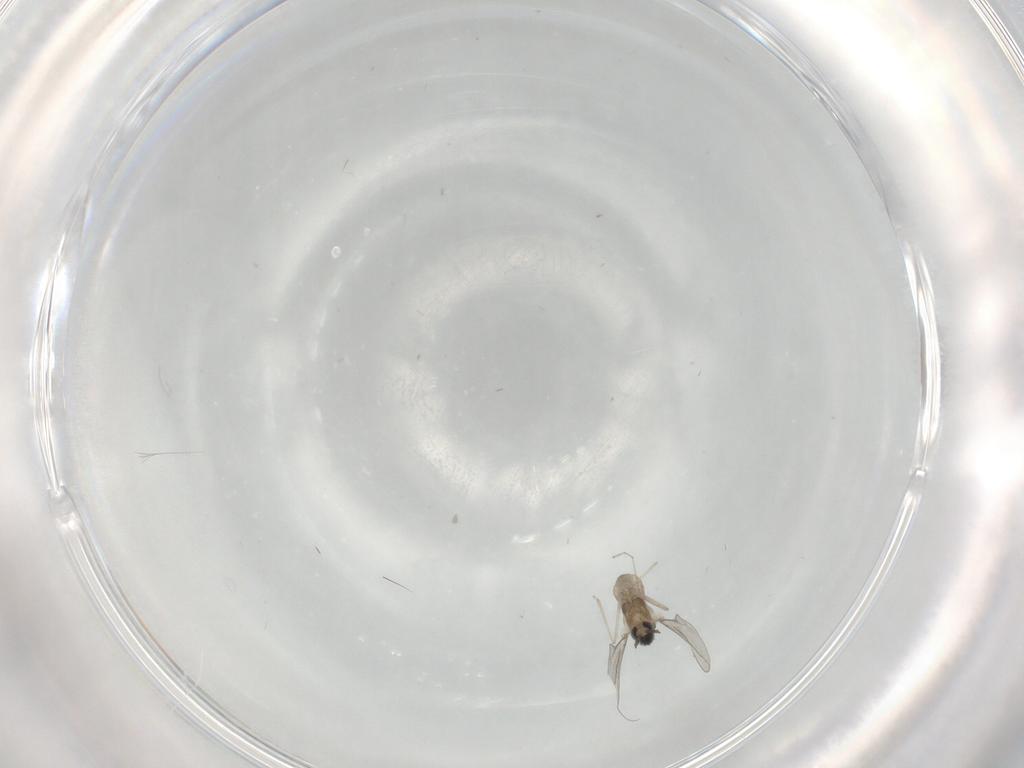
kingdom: Animalia
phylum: Arthropoda
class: Insecta
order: Diptera
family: Cecidomyiidae
